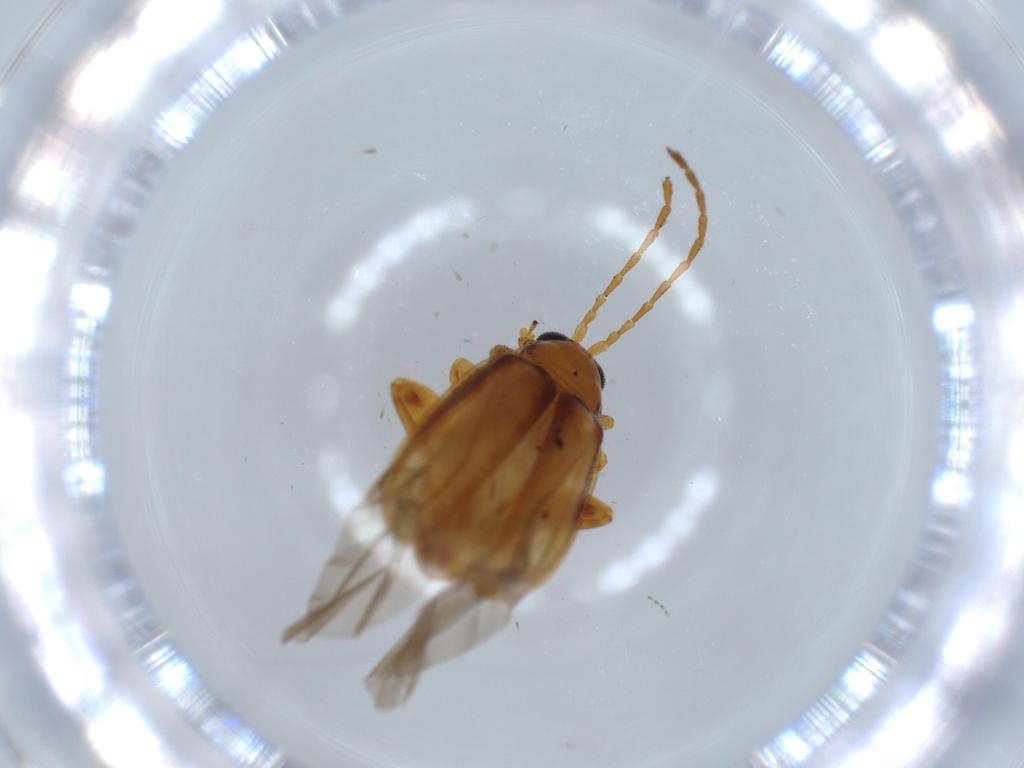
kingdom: Animalia
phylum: Arthropoda
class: Insecta
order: Coleoptera
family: Chrysomelidae
